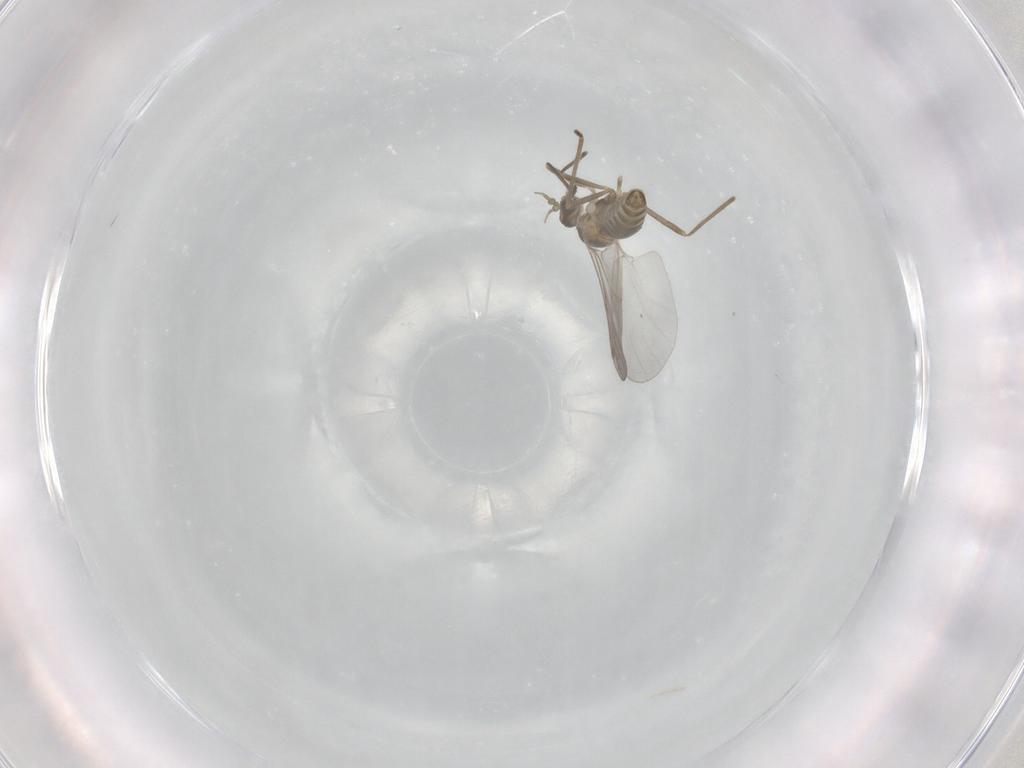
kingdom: Animalia
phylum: Arthropoda
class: Insecta
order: Diptera
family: Cecidomyiidae
